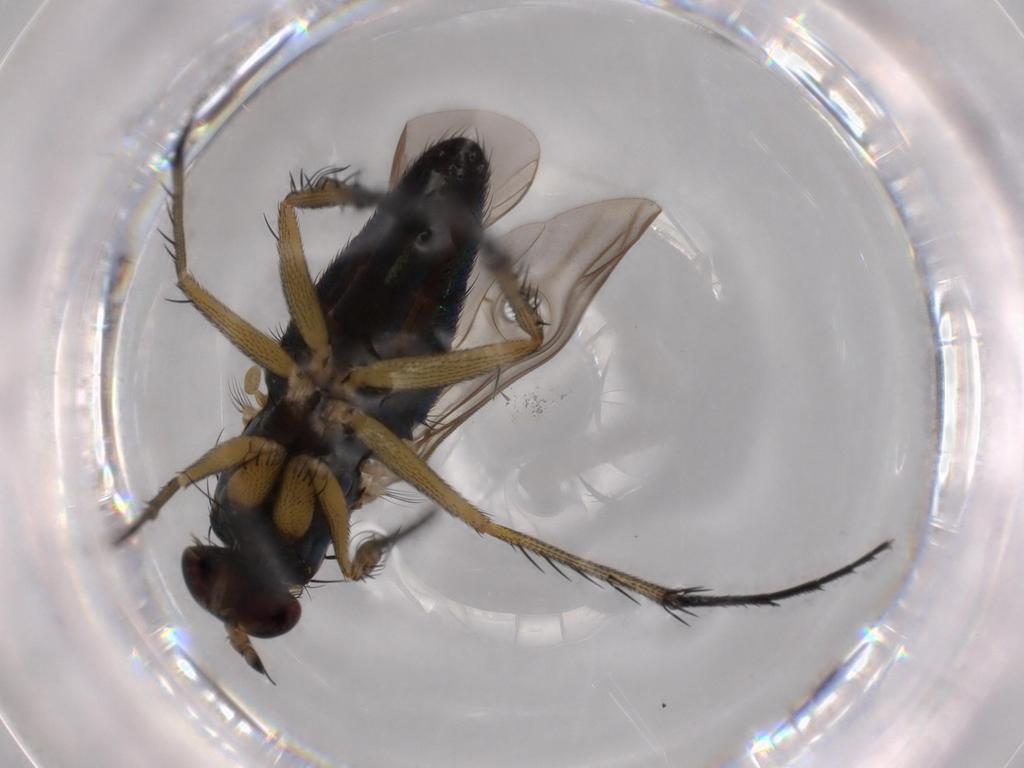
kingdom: Animalia
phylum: Arthropoda
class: Insecta
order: Diptera
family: Dolichopodidae
